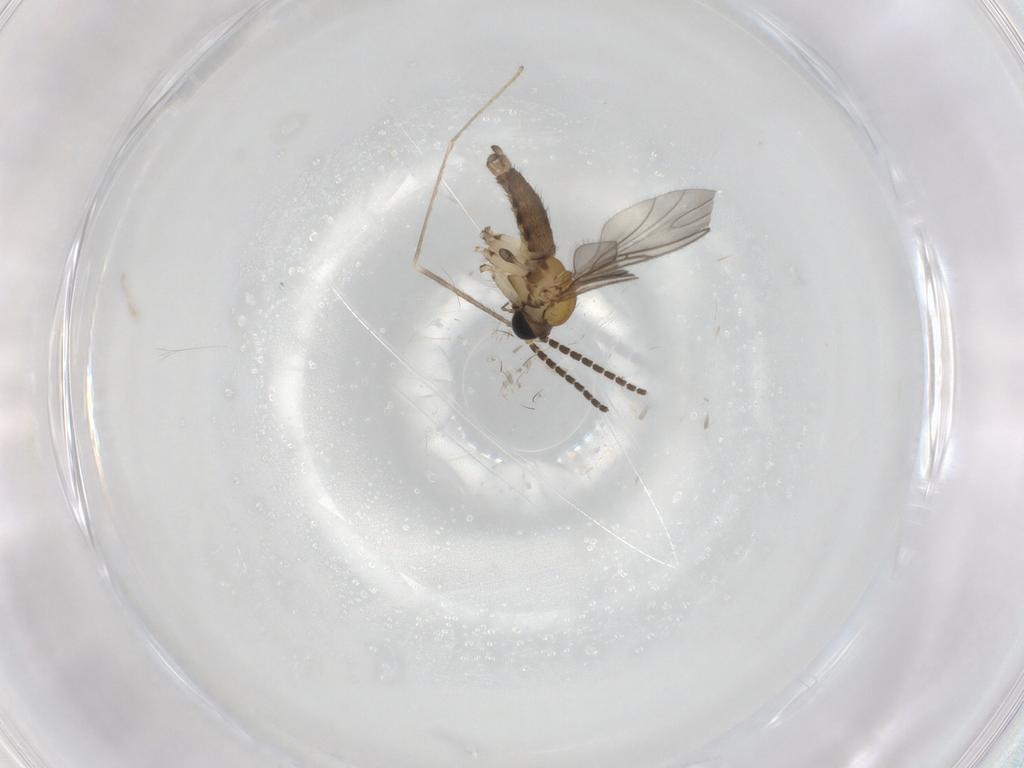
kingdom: Animalia
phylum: Arthropoda
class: Insecta
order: Diptera
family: Sciaridae
